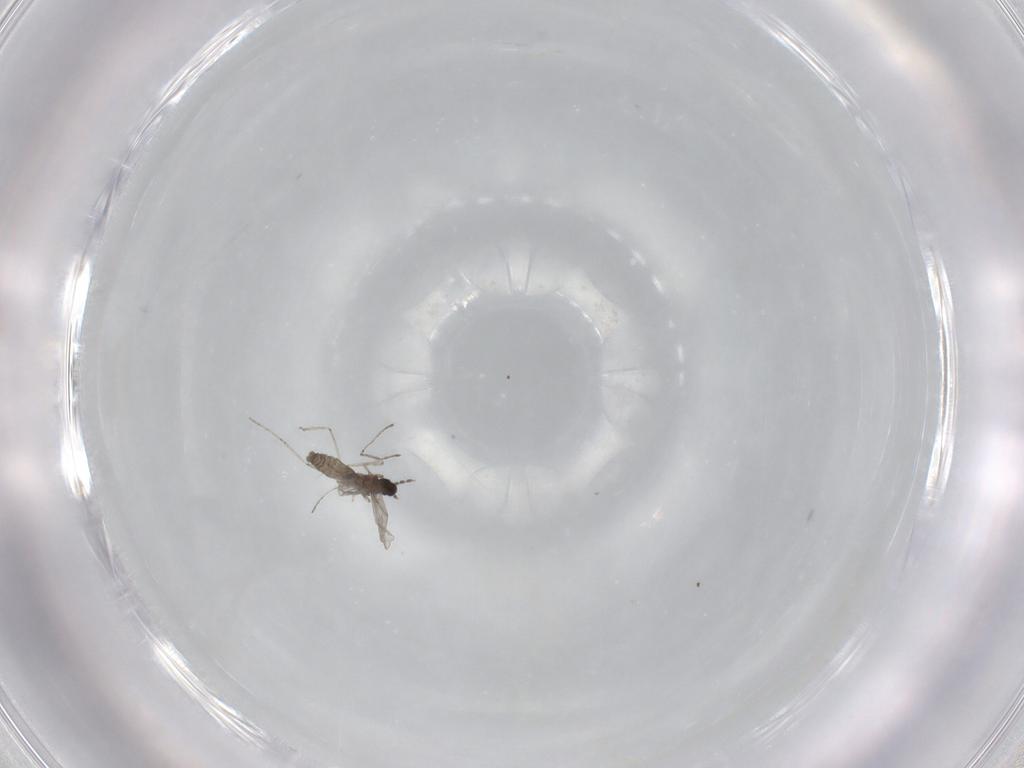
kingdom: Animalia
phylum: Arthropoda
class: Insecta
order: Diptera
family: Cecidomyiidae
